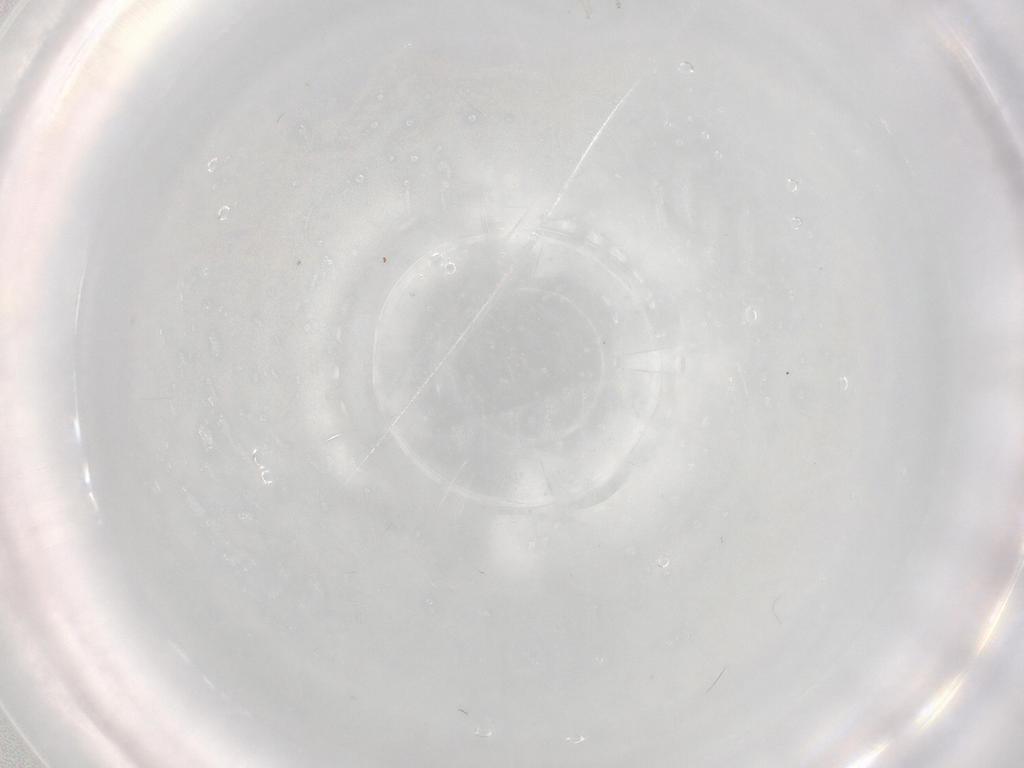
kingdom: Animalia
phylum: Arthropoda
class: Insecta
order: Diptera
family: Cecidomyiidae
